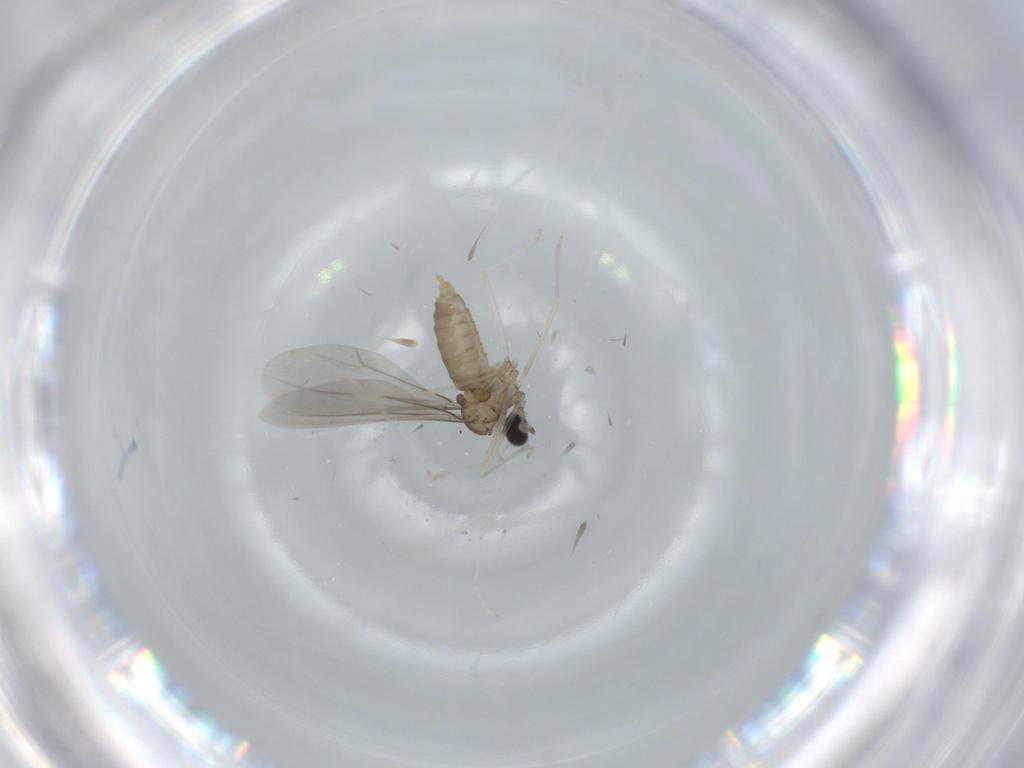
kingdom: Animalia
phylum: Arthropoda
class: Insecta
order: Diptera
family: Cecidomyiidae
